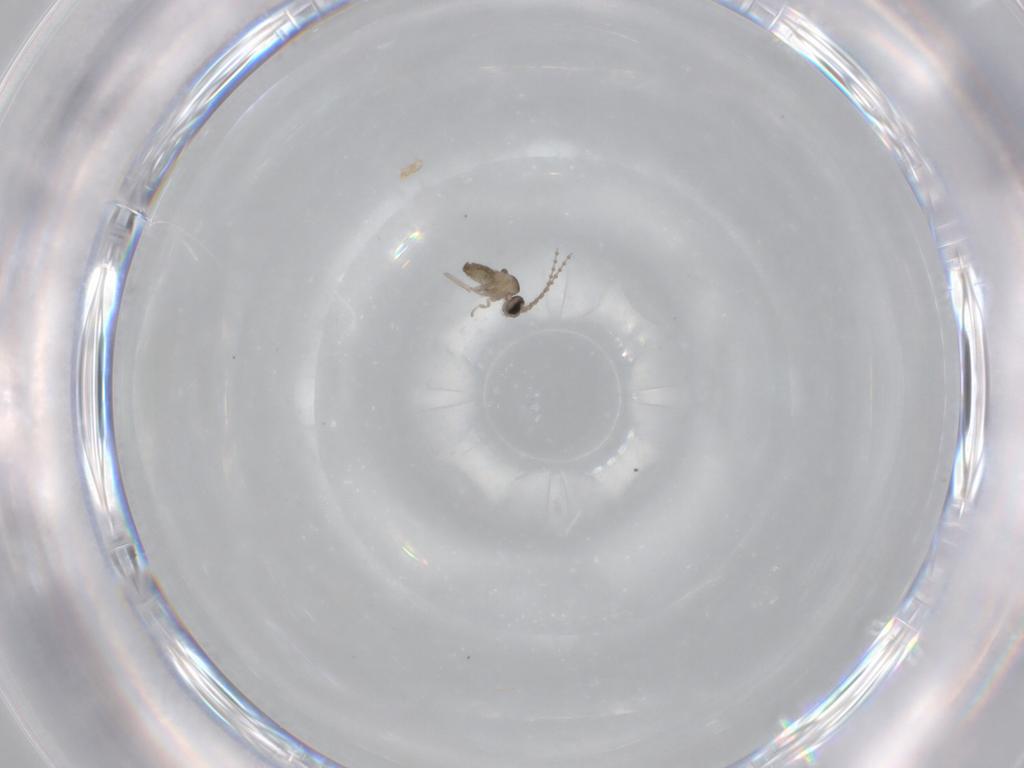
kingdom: Animalia
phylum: Arthropoda
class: Insecta
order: Diptera
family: Cecidomyiidae
